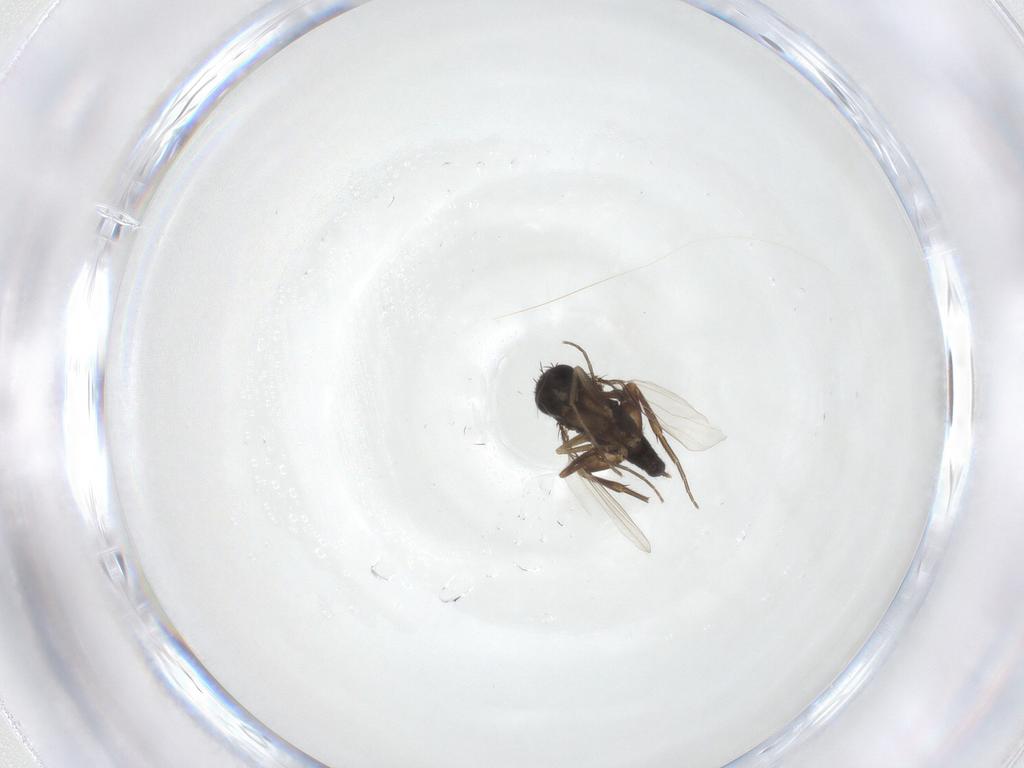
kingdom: Animalia
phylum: Arthropoda
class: Insecta
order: Diptera
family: Phoridae
